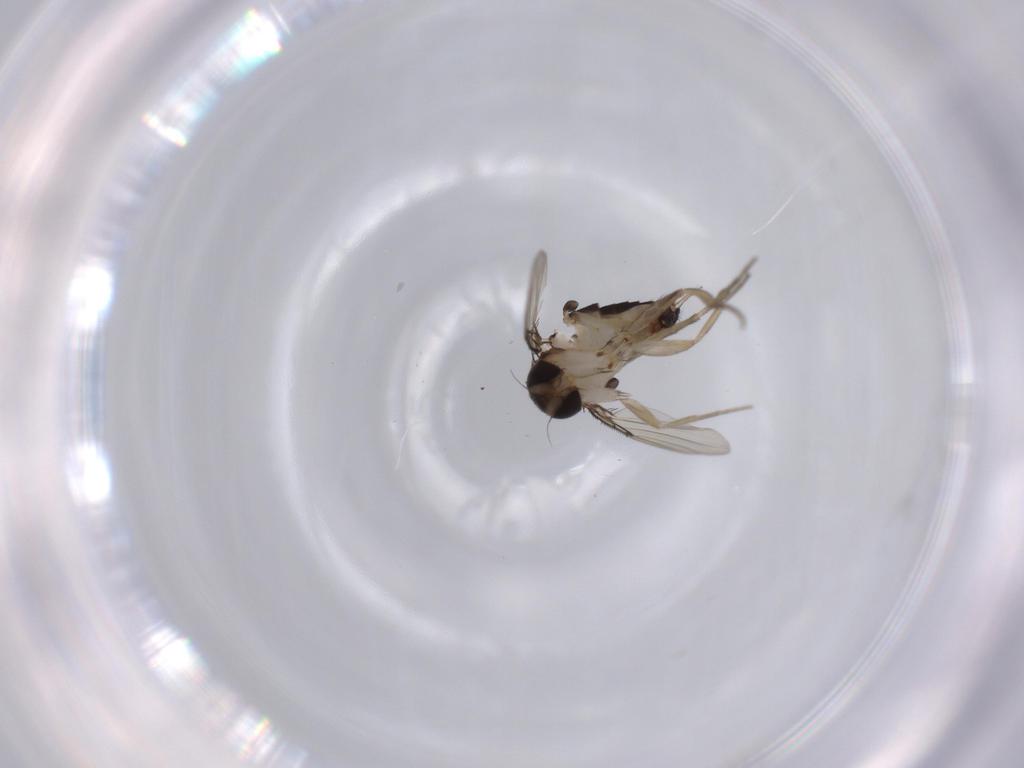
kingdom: Animalia
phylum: Arthropoda
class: Insecta
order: Diptera
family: Phoridae
